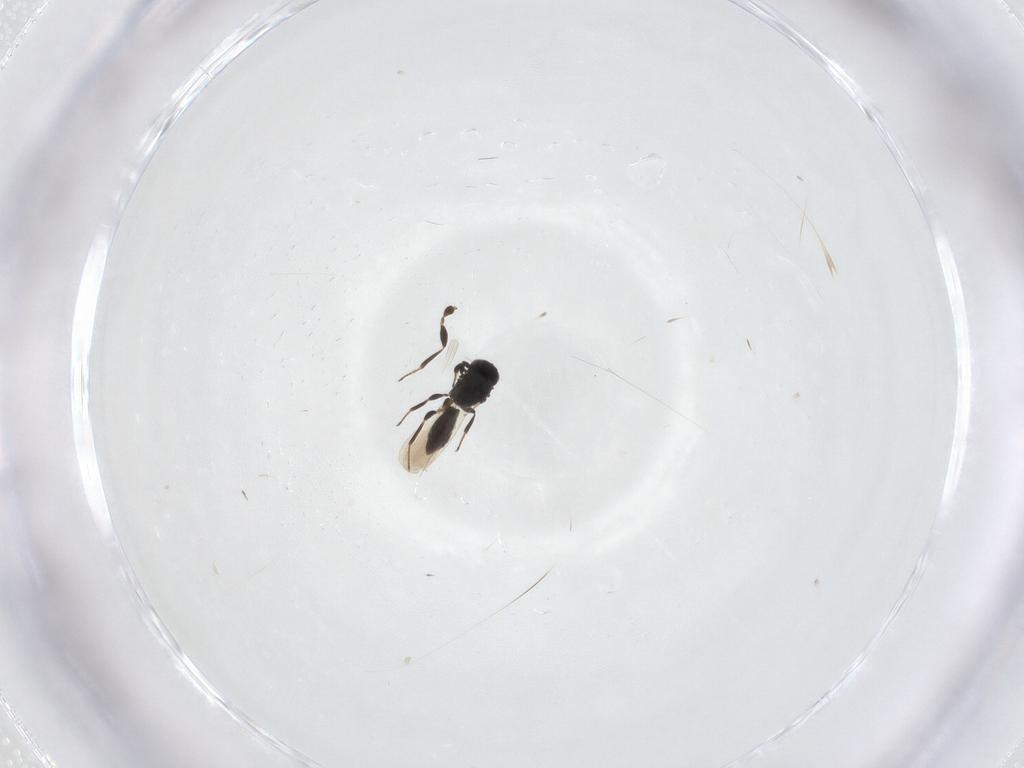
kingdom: Animalia
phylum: Arthropoda
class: Insecta
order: Hymenoptera
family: Platygastridae
